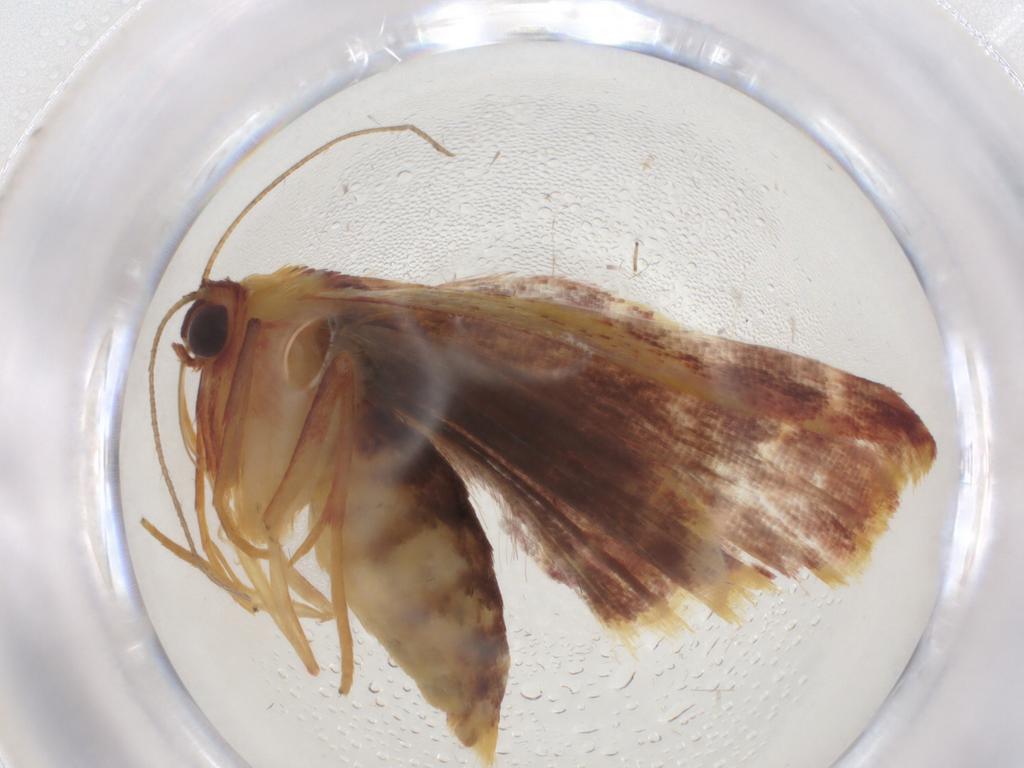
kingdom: Animalia
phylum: Arthropoda
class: Insecta
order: Lepidoptera
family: Geometridae
